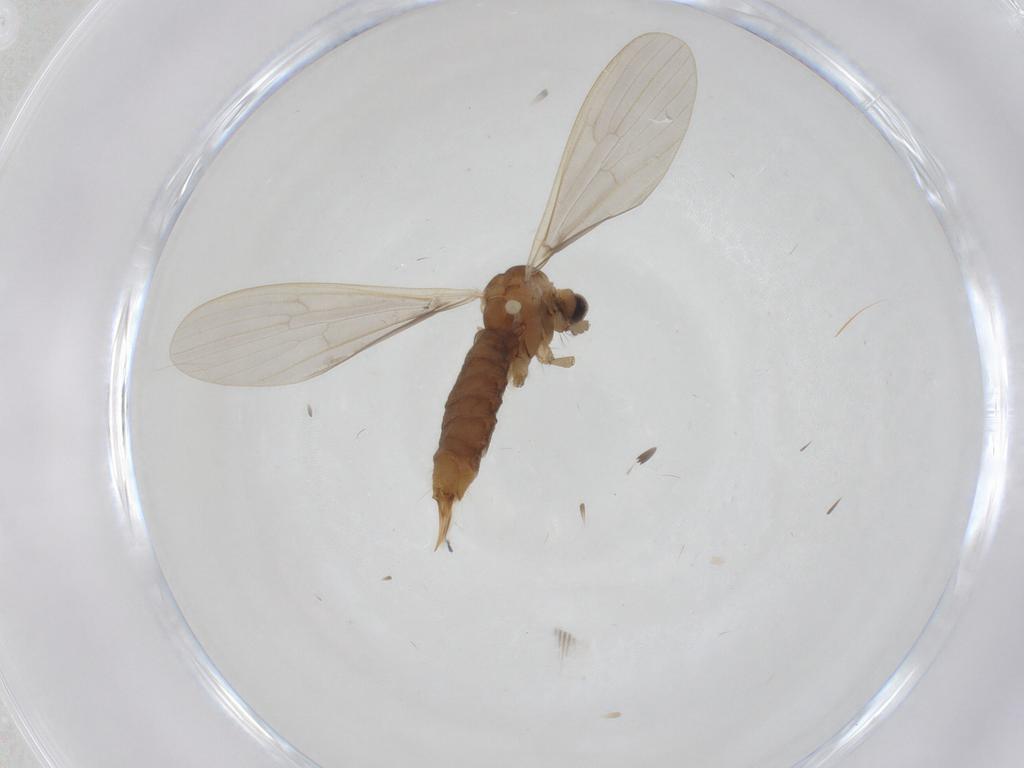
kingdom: Animalia
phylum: Arthropoda
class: Insecta
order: Diptera
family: Limoniidae
